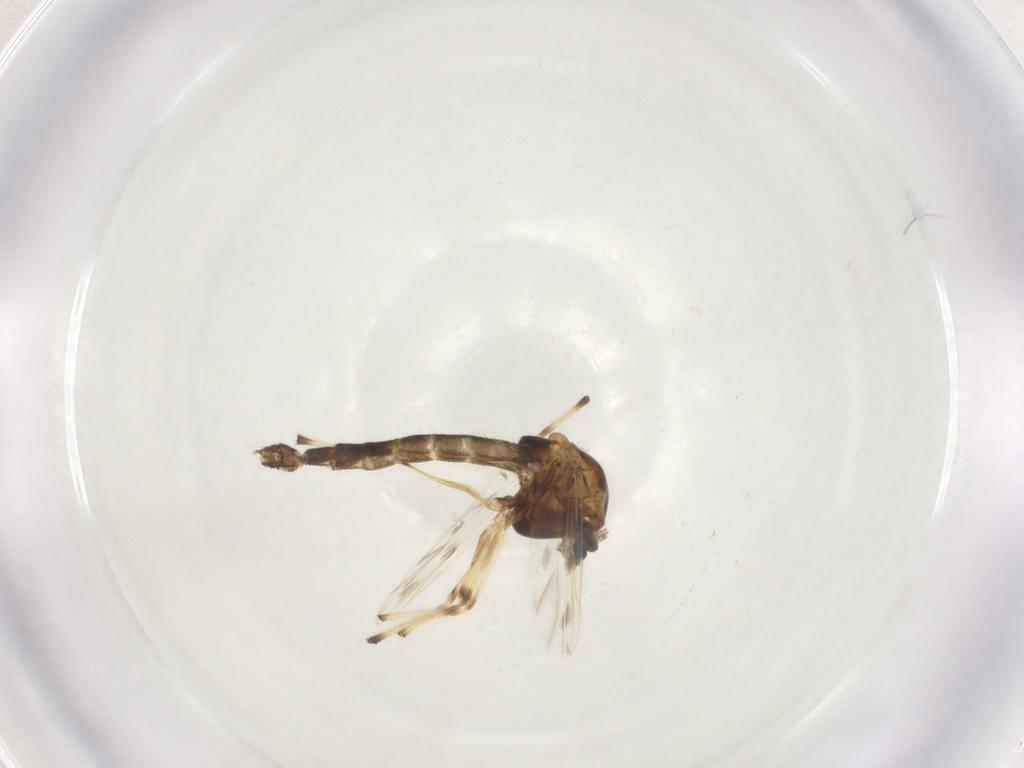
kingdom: Animalia
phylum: Arthropoda
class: Insecta
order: Diptera
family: Chironomidae
